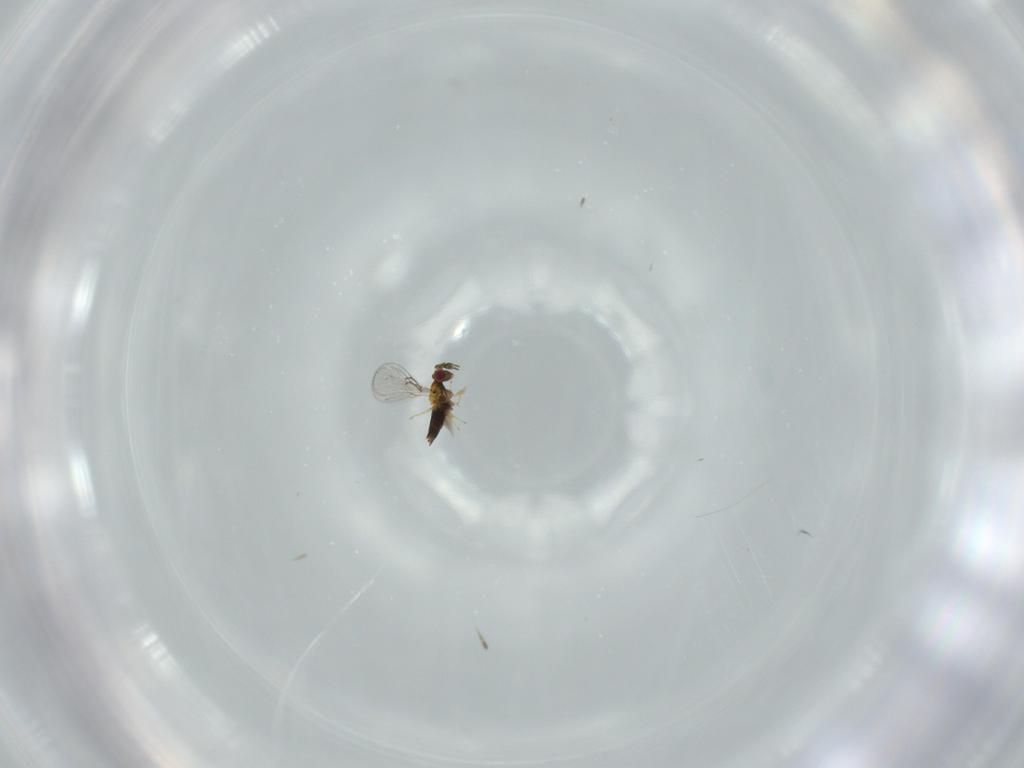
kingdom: Animalia
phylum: Arthropoda
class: Insecta
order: Hymenoptera
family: Trichogrammatidae
